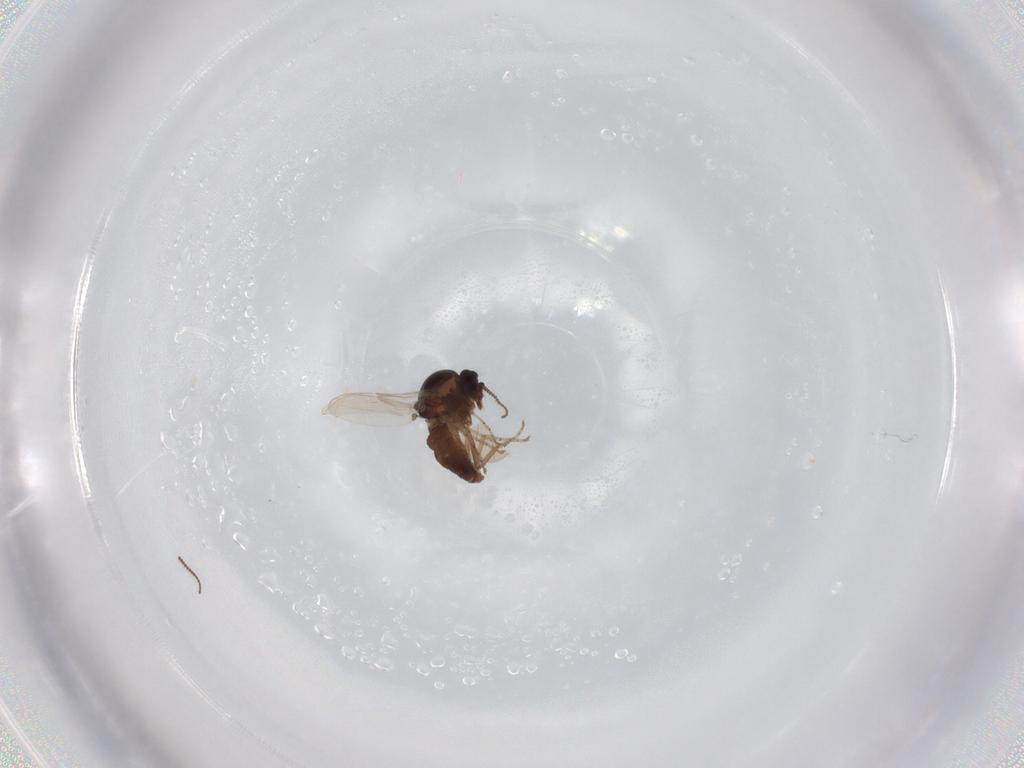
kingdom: Animalia
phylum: Arthropoda
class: Insecta
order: Diptera
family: Ceratopogonidae
